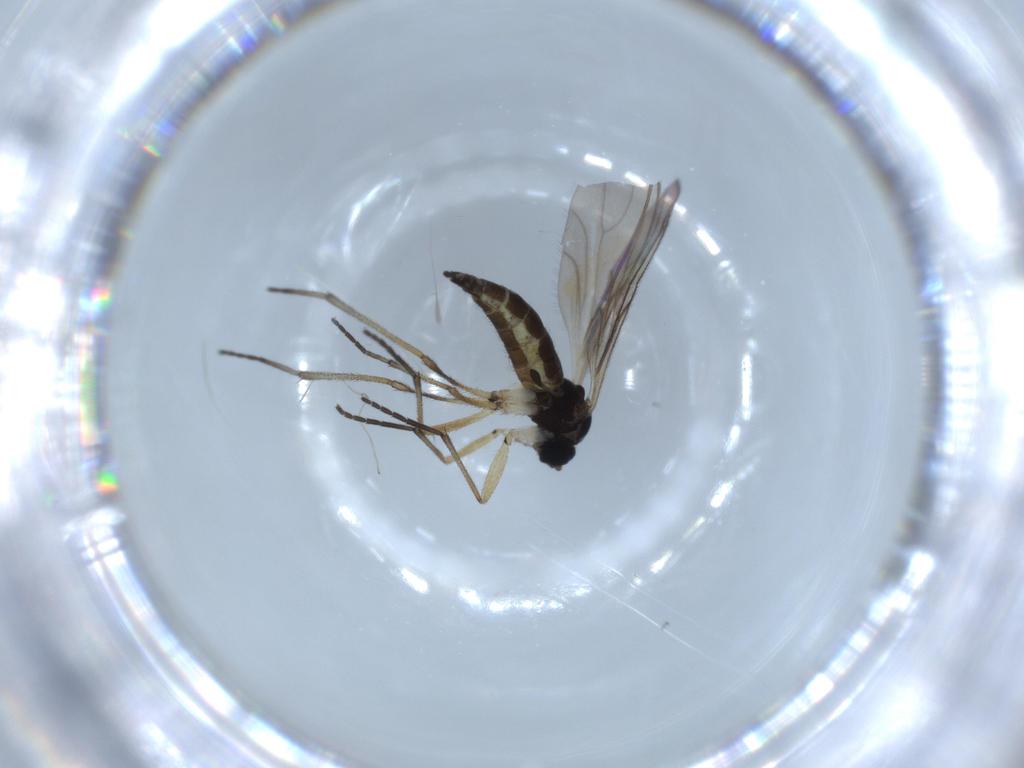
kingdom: Animalia
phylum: Arthropoda
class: Insecta
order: Diptera
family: Sciaridae
